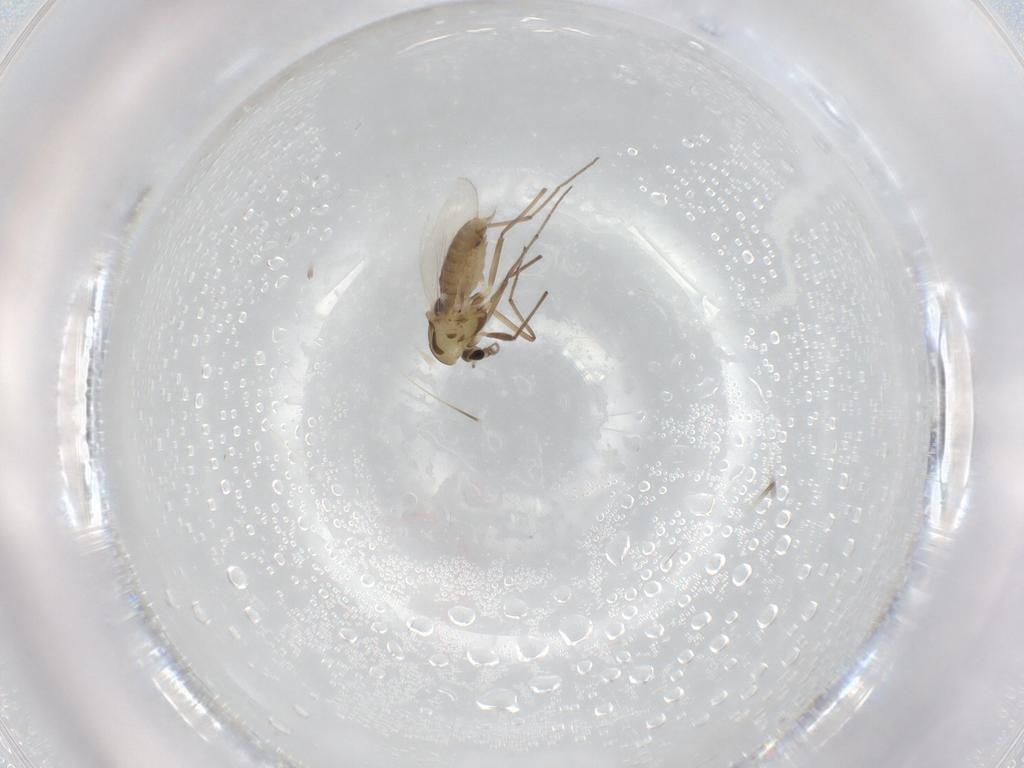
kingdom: Animalia
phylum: Arthropoda
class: Insecta
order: Diptera
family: Chironomidae
